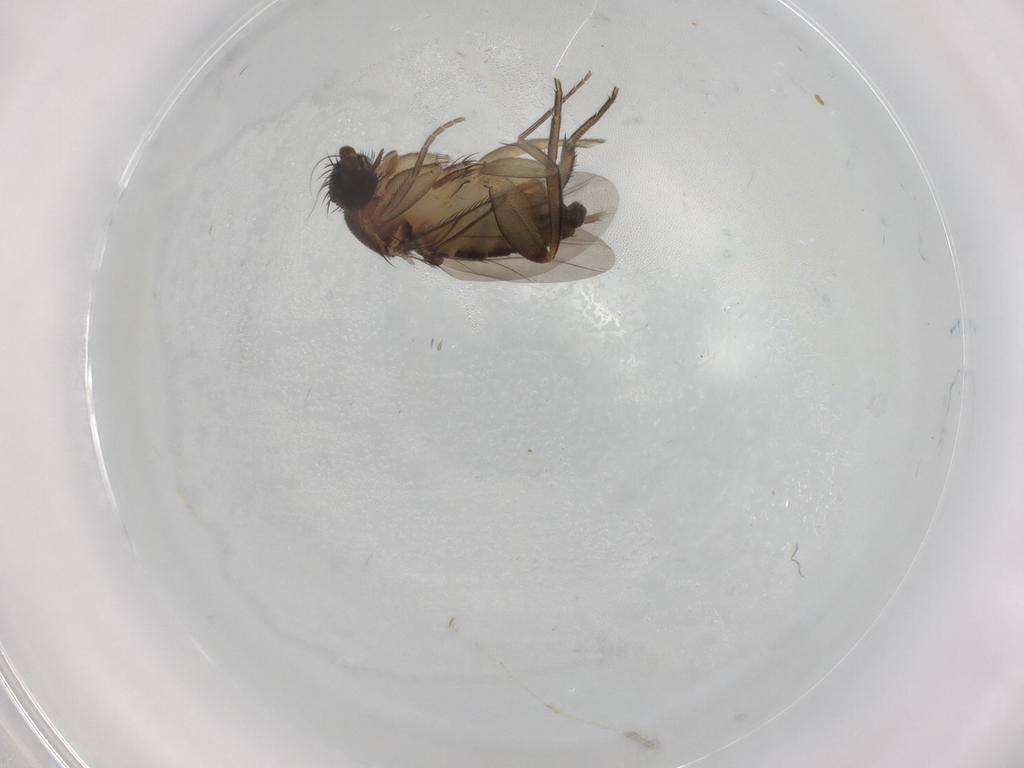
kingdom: Animalia
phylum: Arthropoda
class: Insecta
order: Diptera
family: Phoridae
